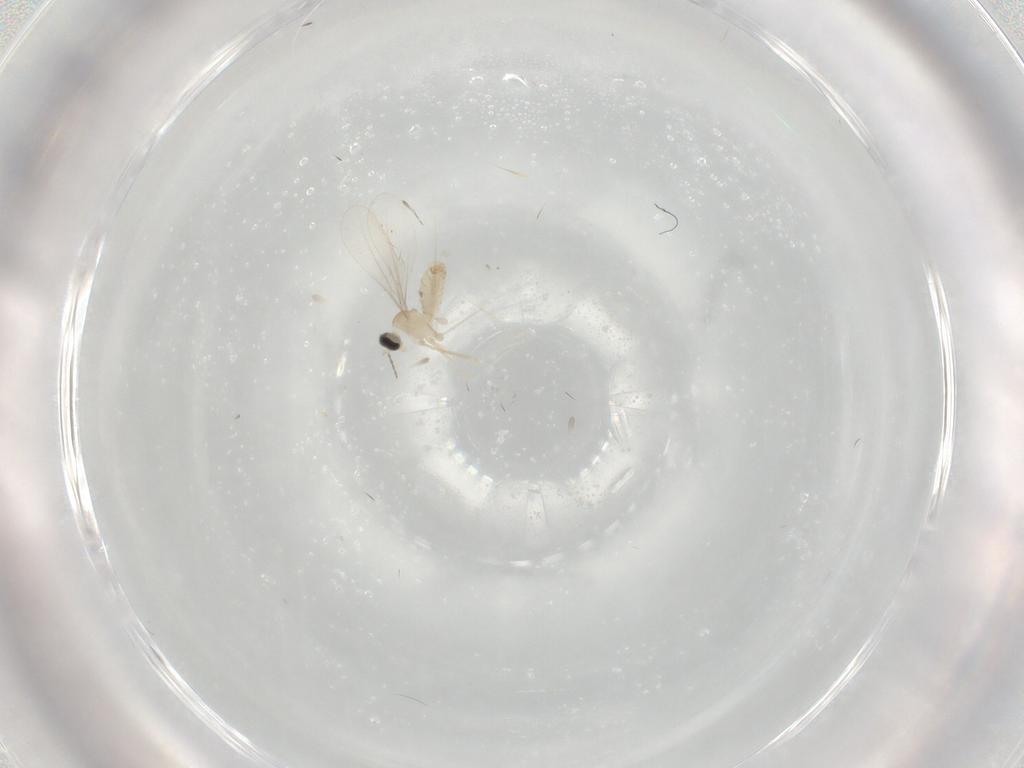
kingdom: Animalia
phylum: Arthropoda
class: Insecta
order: Diptera
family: Cecidomyiidae
